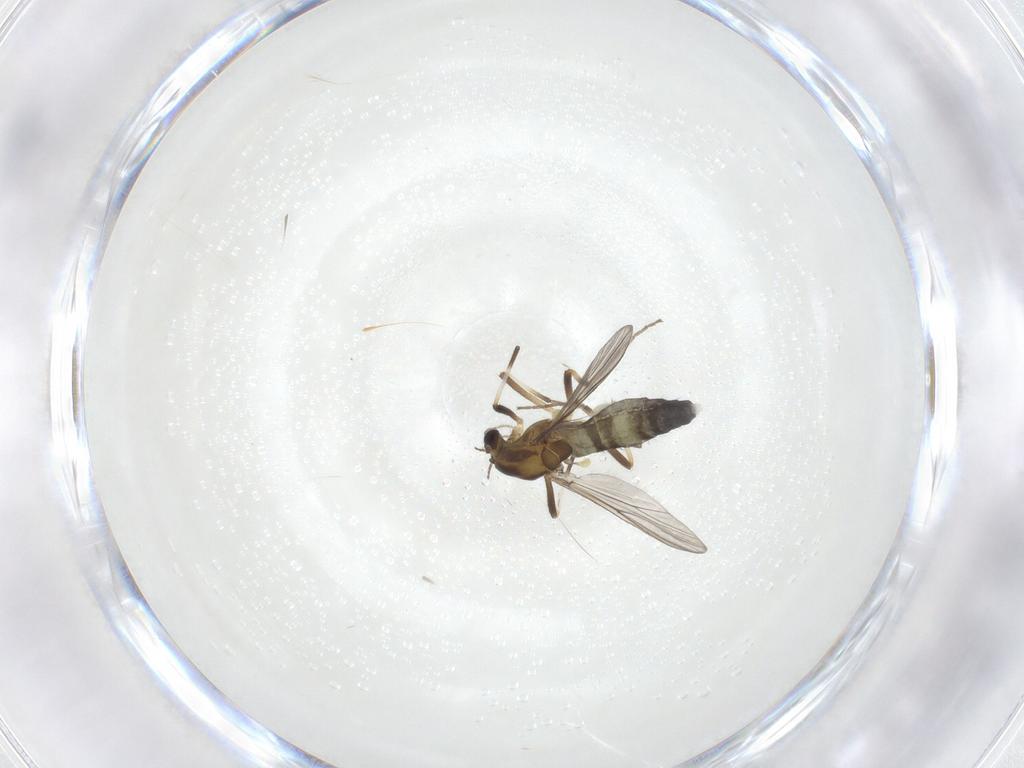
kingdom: Animalia
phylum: Arthropoda
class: Insecta
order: Diptera
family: Chironomidae
